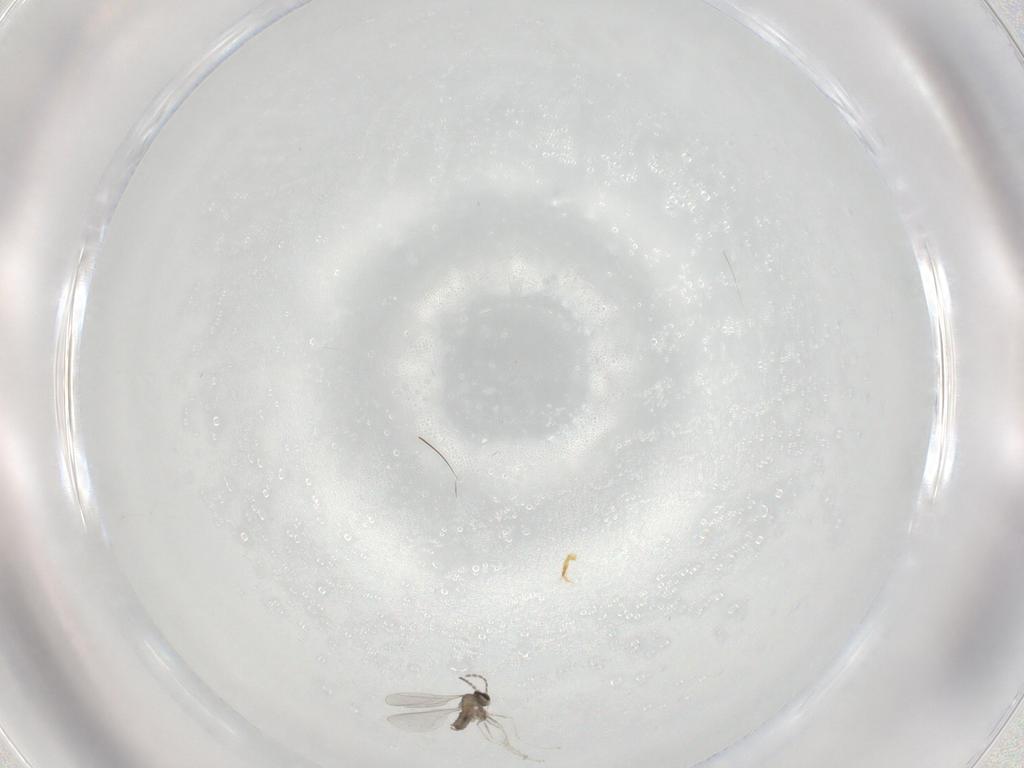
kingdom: Animalia
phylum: Arthropoda
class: Insecta
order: Diptera
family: Cecidomyiidae
